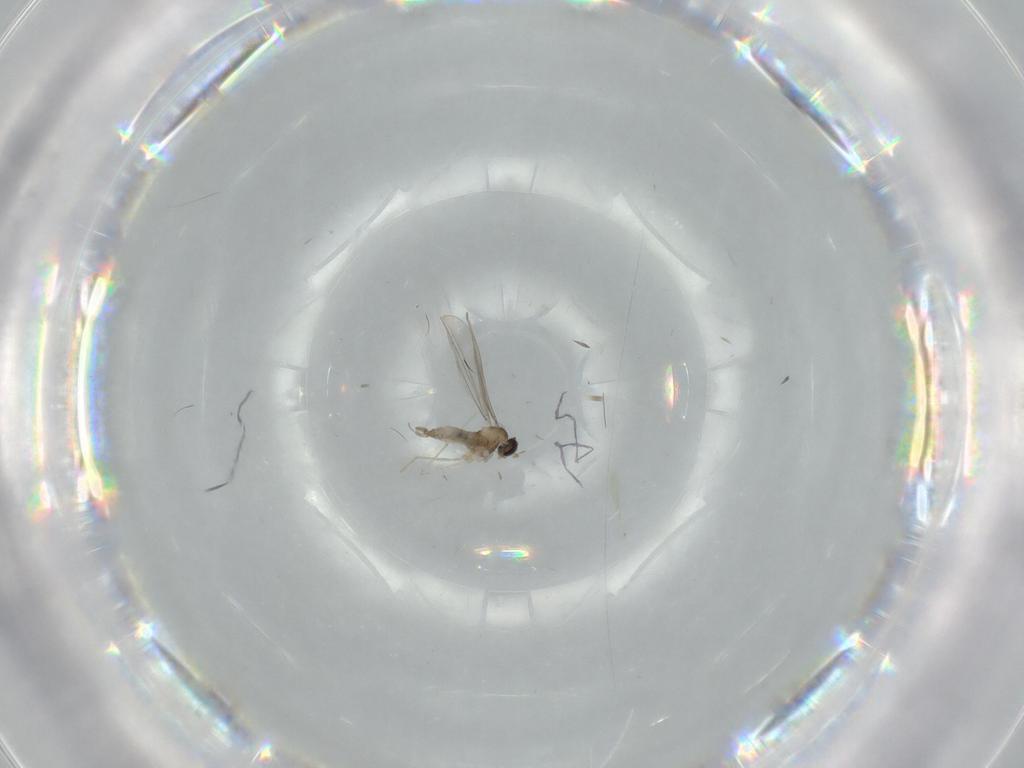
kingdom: Animalia
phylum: Arthropoda
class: Insecta
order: Diptera
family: Cecidomyiidae
